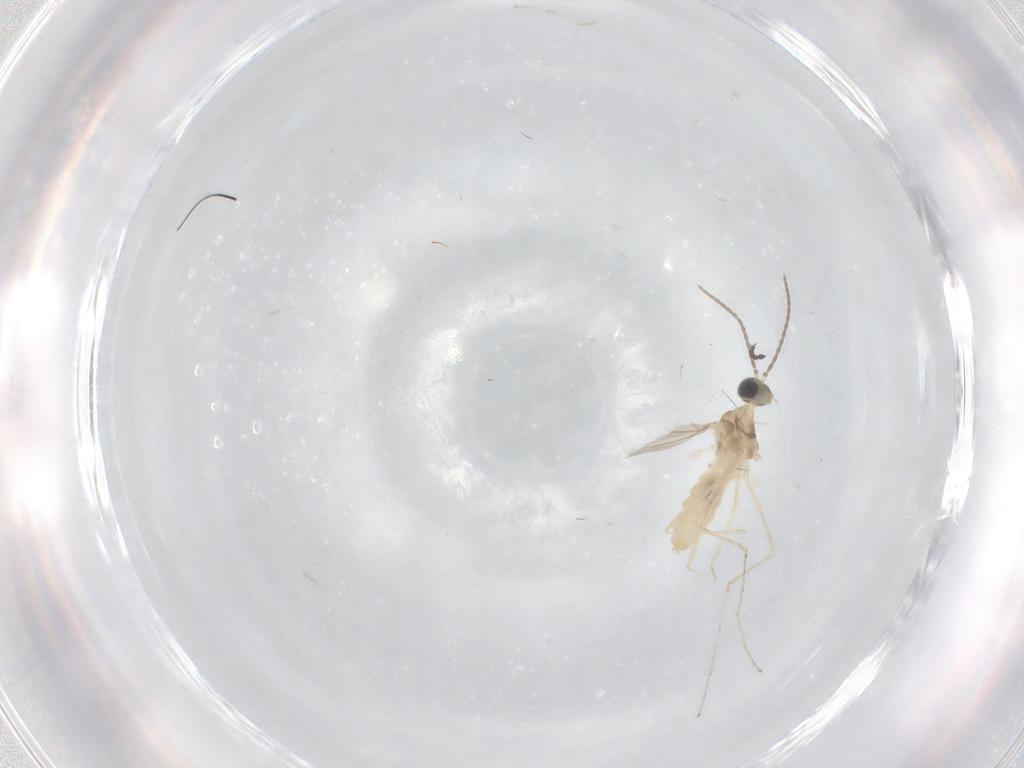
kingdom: Animalia
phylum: Arthropoda
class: Insecta
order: Diptera
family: Cecidomyiidae
